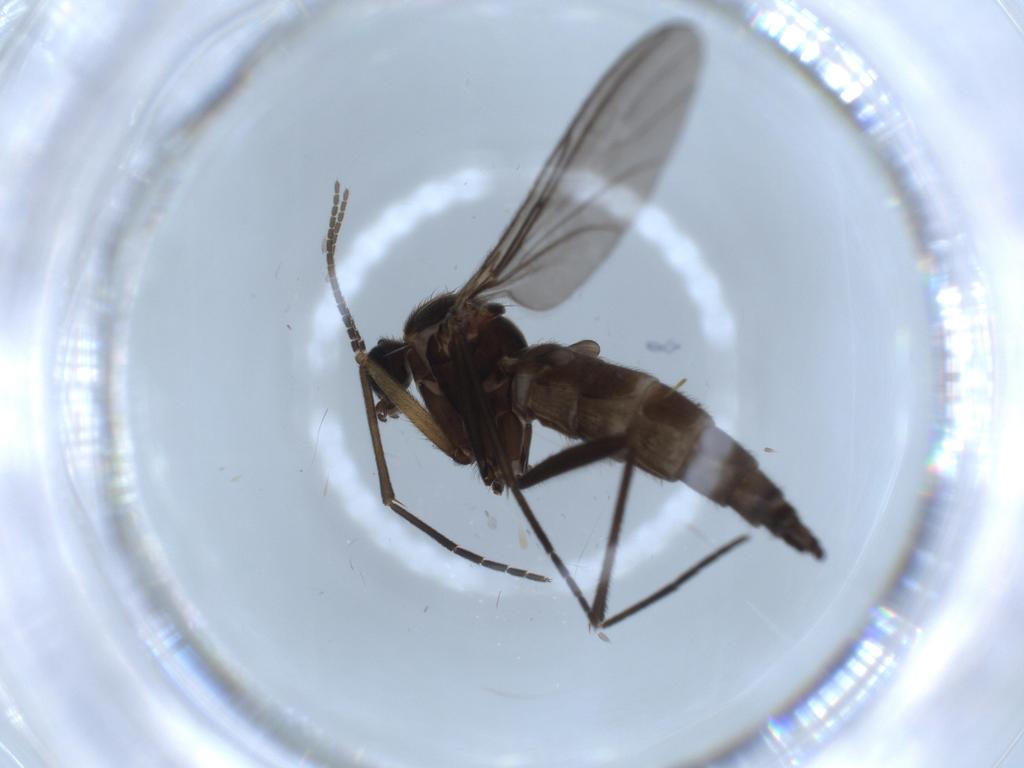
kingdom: Animalia
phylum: Arthropoda
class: Insecta
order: Diptera
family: Sciaridae
